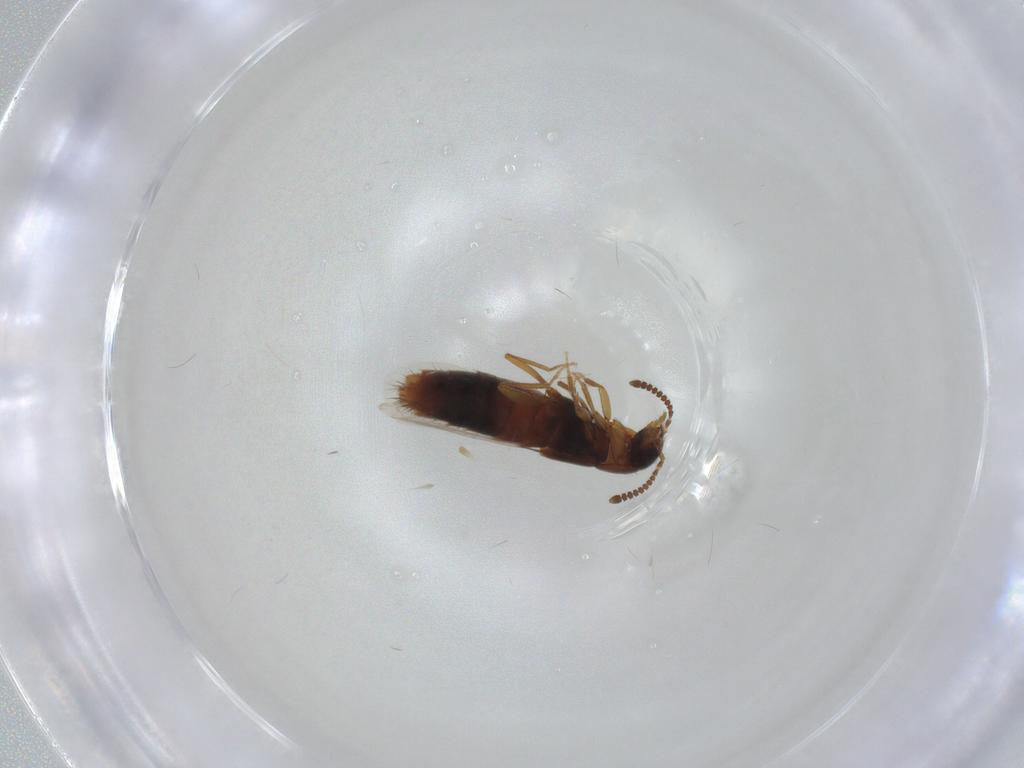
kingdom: Animalia
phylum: Arthropoda
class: Insecta
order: Coleoptera
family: Staphylinidae
